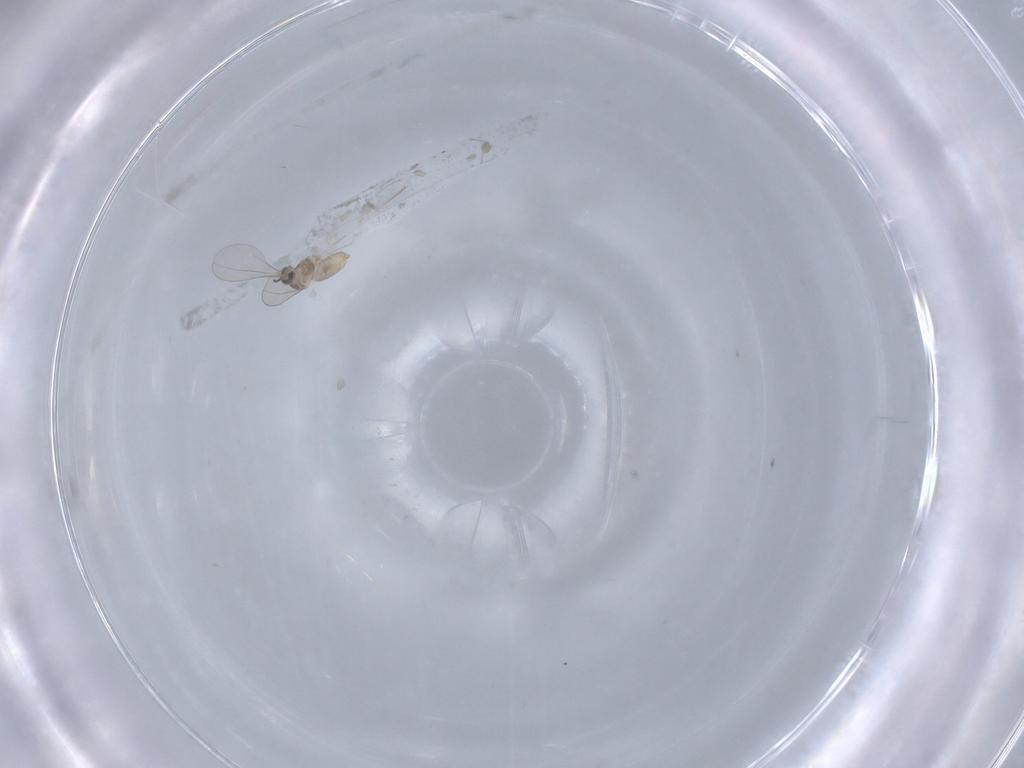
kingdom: Animalia
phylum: Arthropoda
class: Insecta
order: Diptera
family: Cecidomyiidae
